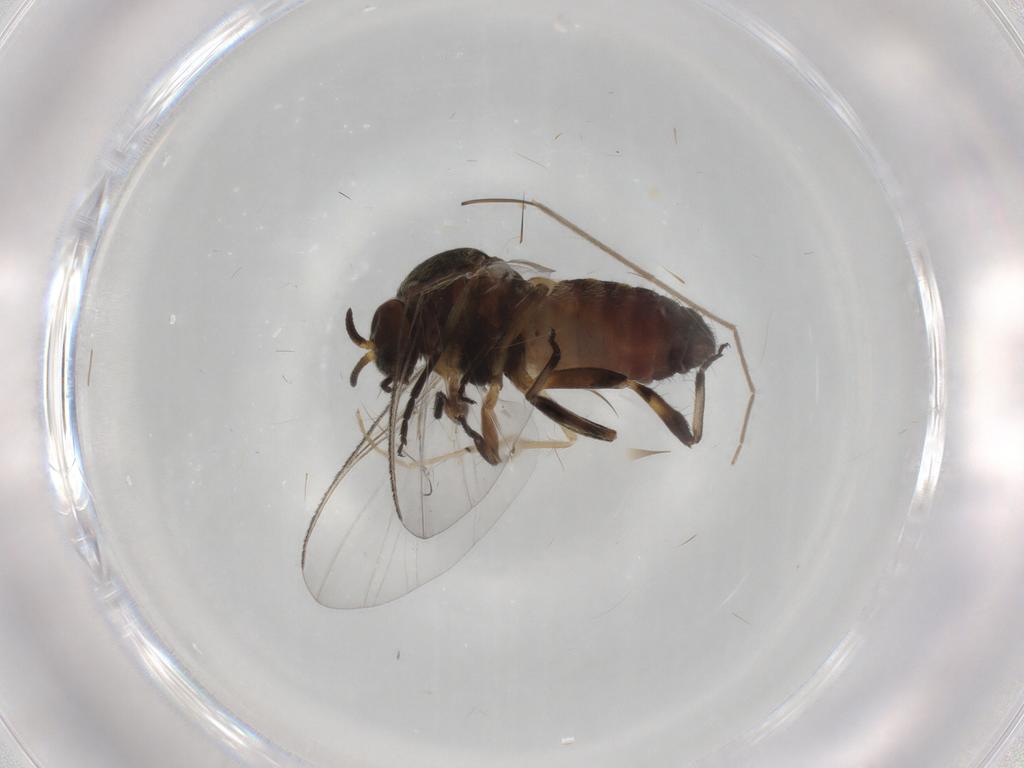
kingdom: Animalia
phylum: Arthropoda
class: Insecta
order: Diptera
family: Simuliidae
